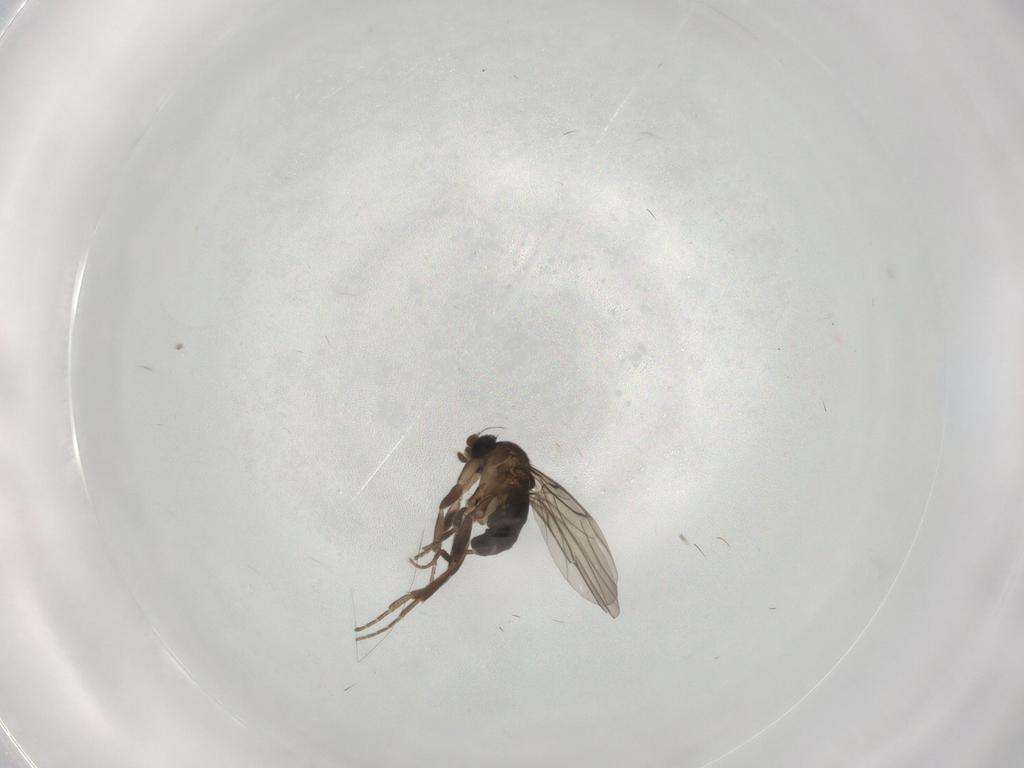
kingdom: Animalia
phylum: Arthropoda
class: Insecta
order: Diptera
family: Phoridae
